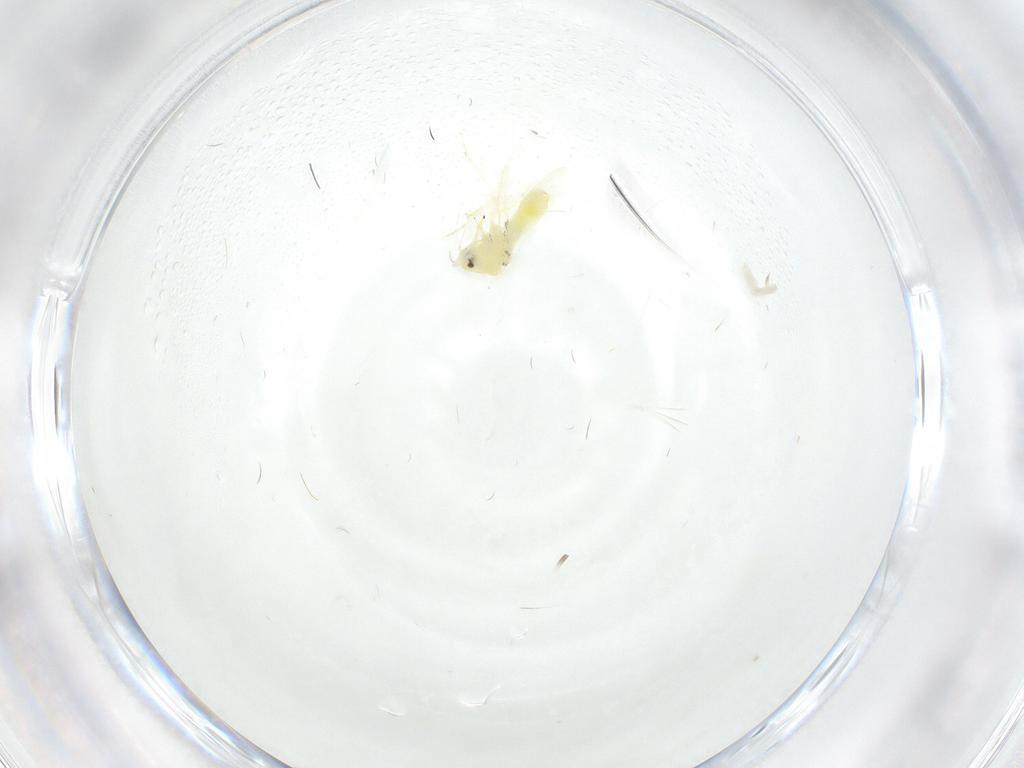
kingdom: Animalia
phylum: Arthropoda
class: Insecta
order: Hemiptera
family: Aleyrodidae
